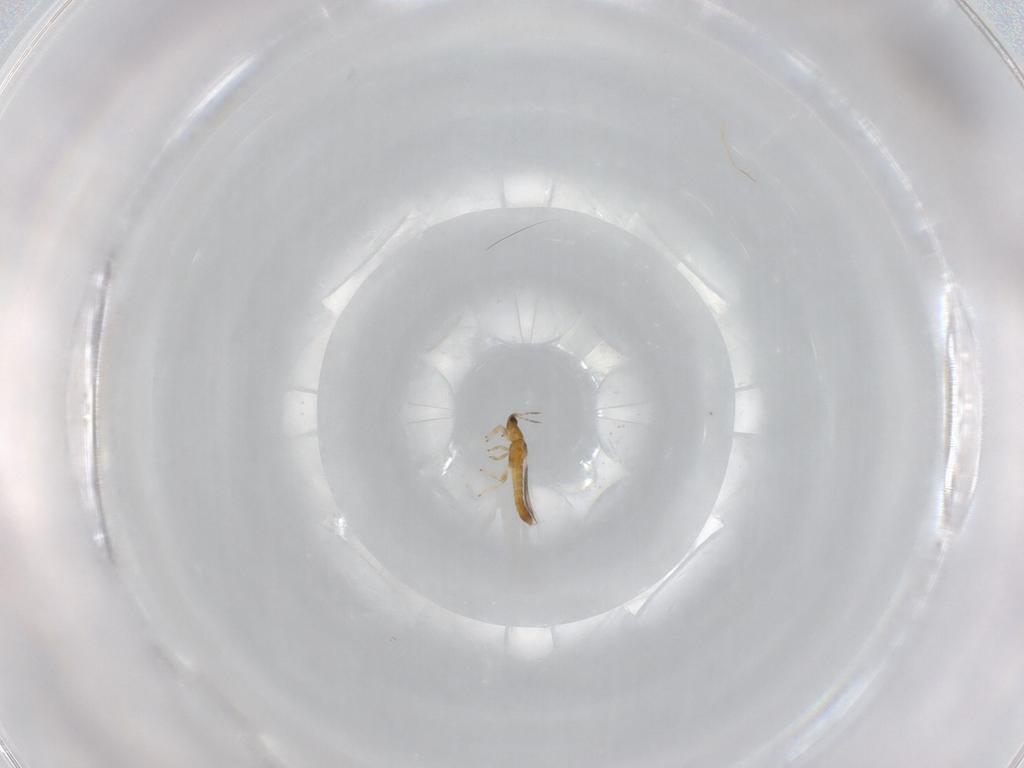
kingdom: Animalia
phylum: Arthropoda
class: Insecta
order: Thysanoptera
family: Thripidae
